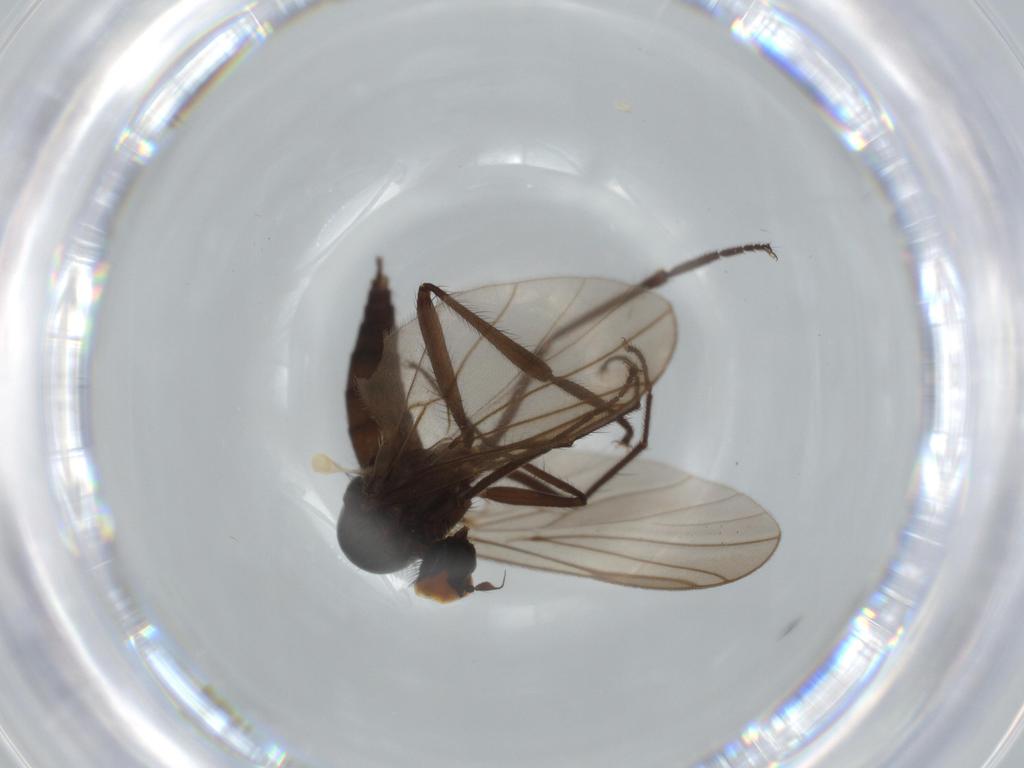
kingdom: Animalia
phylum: Arthropoda
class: Insecta
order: Diptera
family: Hybotidae
